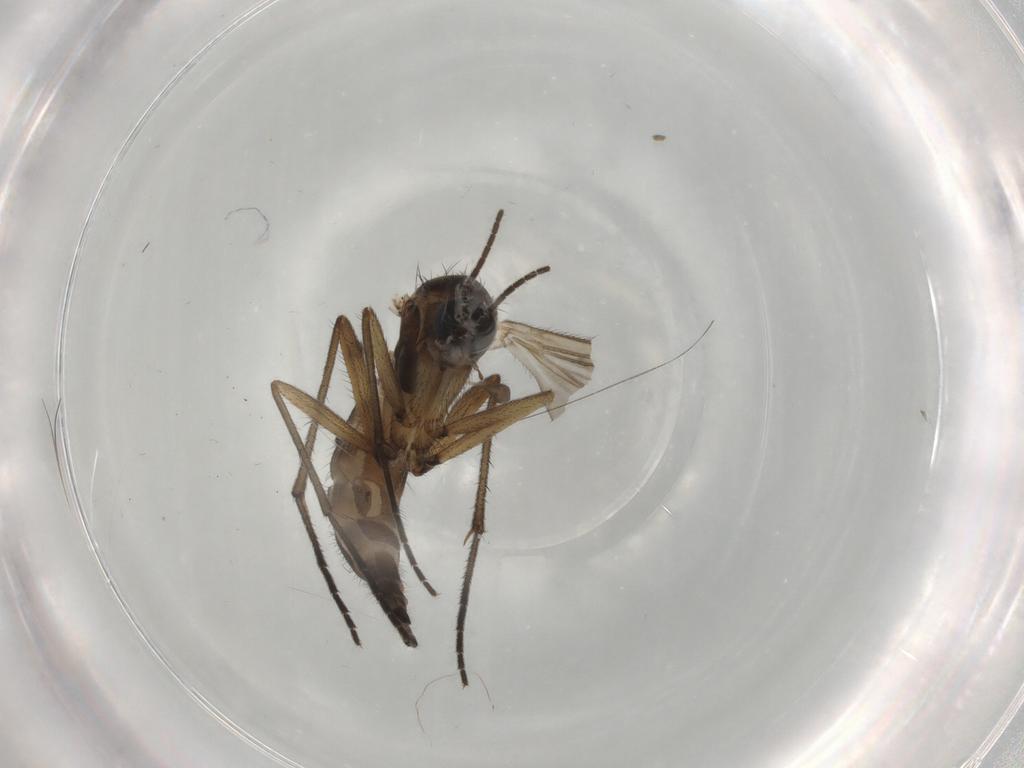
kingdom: Animalia
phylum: Arthropoda
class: Insecta
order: Diptera
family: Sciaridae
